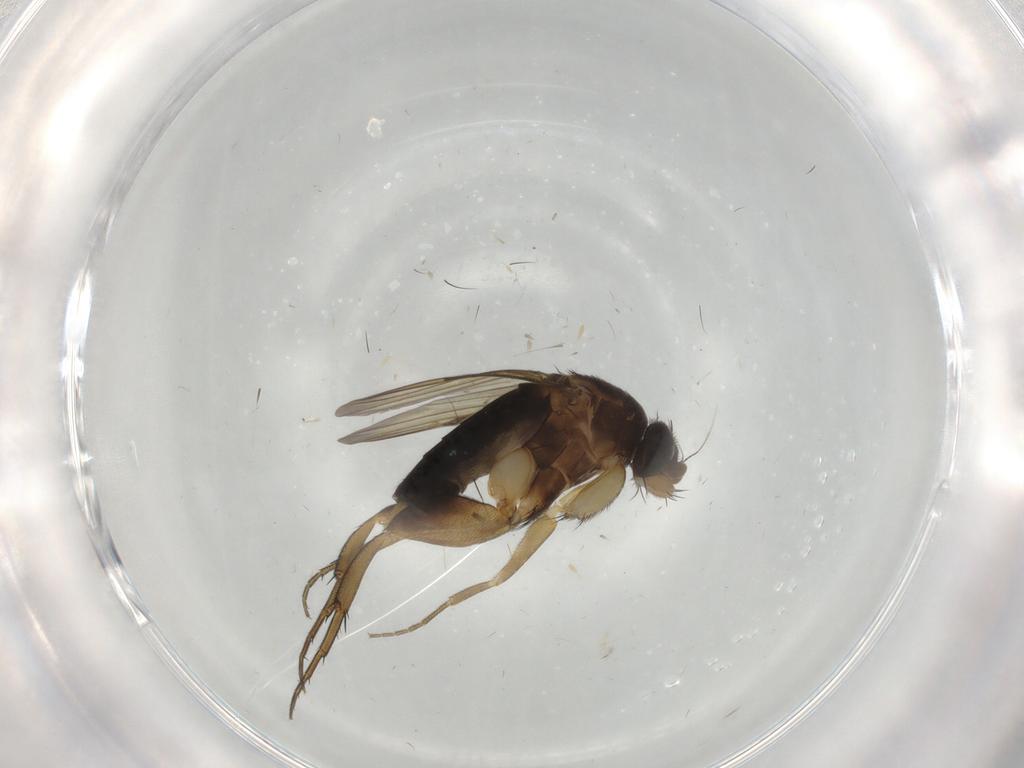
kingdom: Animalia
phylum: Arthropoda
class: Insecta
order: Diptera
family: Phoridae
